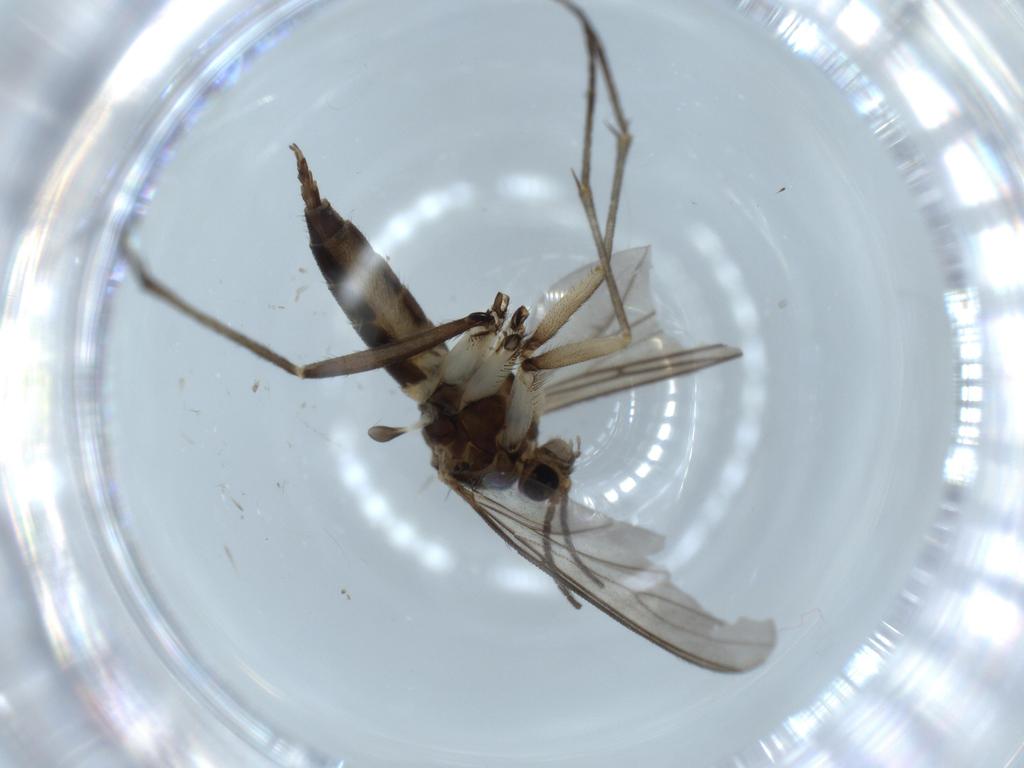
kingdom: Animalia
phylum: Arthropoda
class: Insecta
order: Diptera
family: Sciaridae
